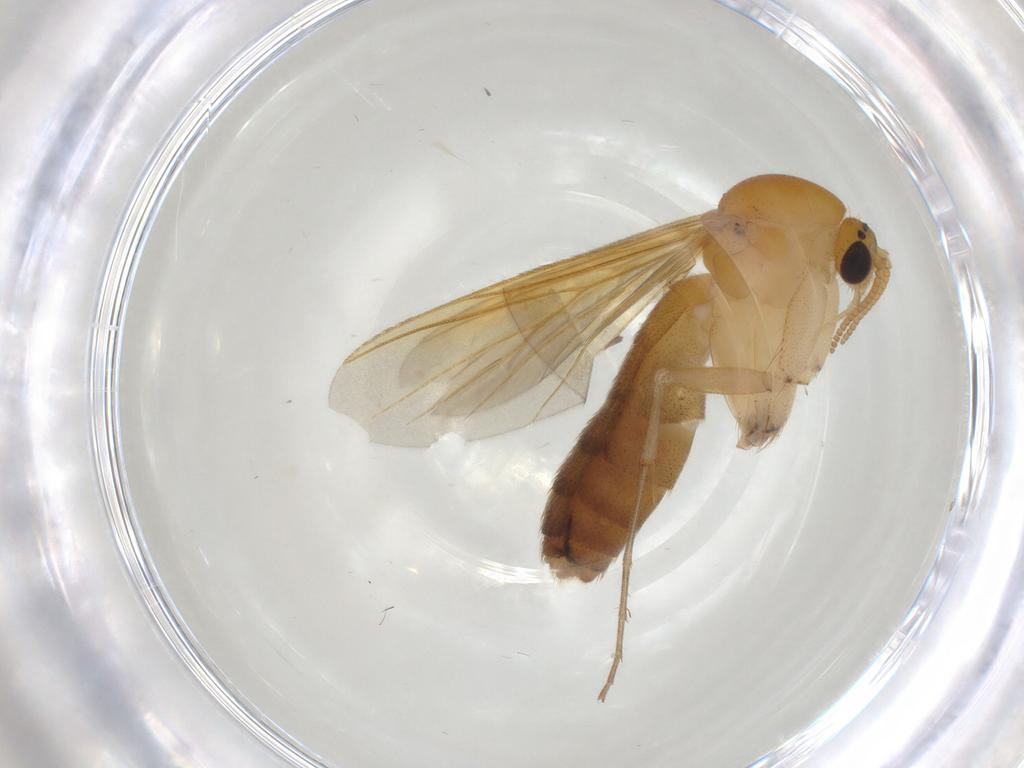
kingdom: Animalia
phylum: Arthropoda
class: Insecta
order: Diptera
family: Mycetophilidae
